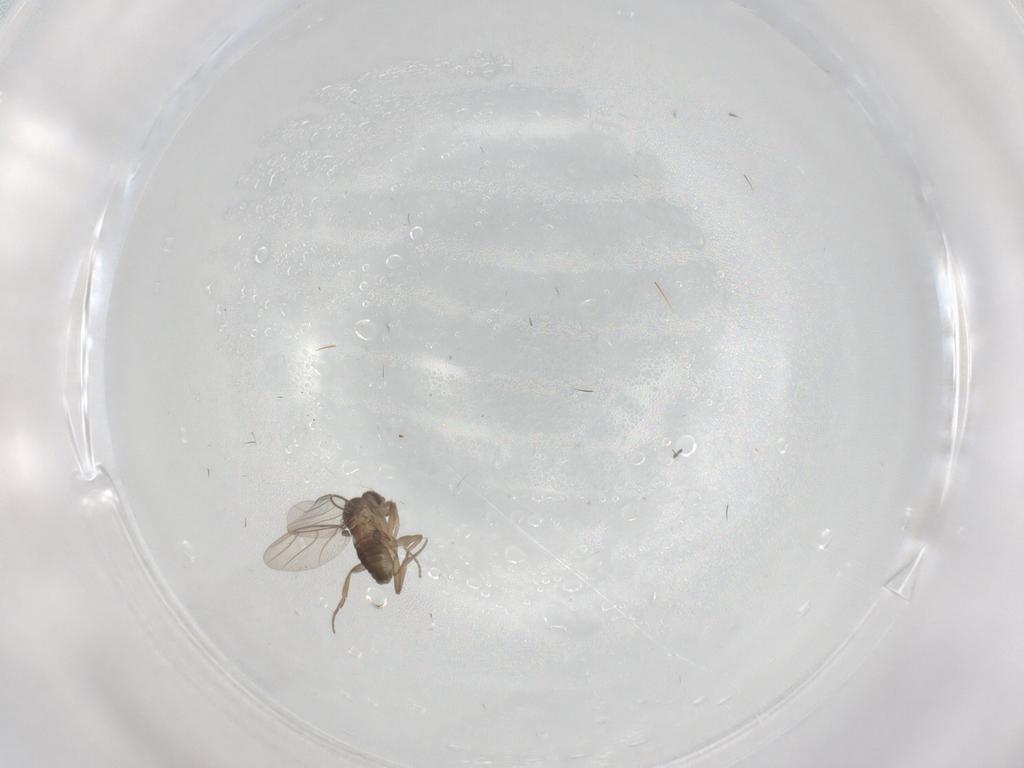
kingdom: Animalia
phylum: Arthropoda
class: Insecta
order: Diptera
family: Sciaridae
